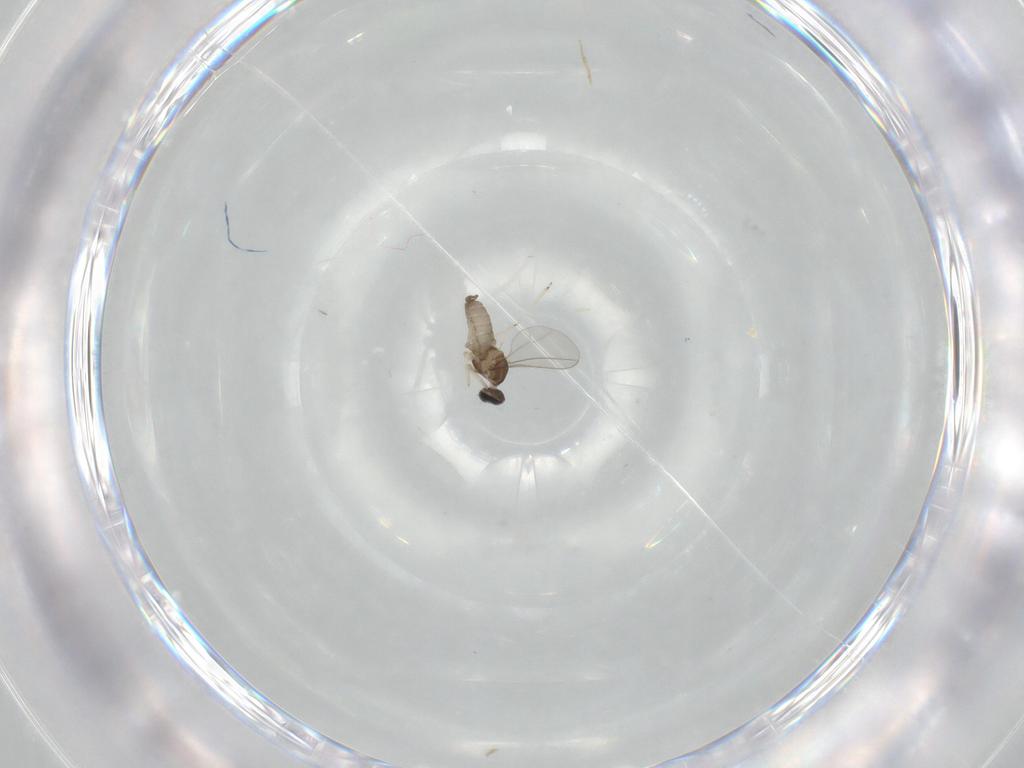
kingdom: Animalia
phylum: Arthropoda
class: Insecta
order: Diptera
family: Cecidomyiidae
